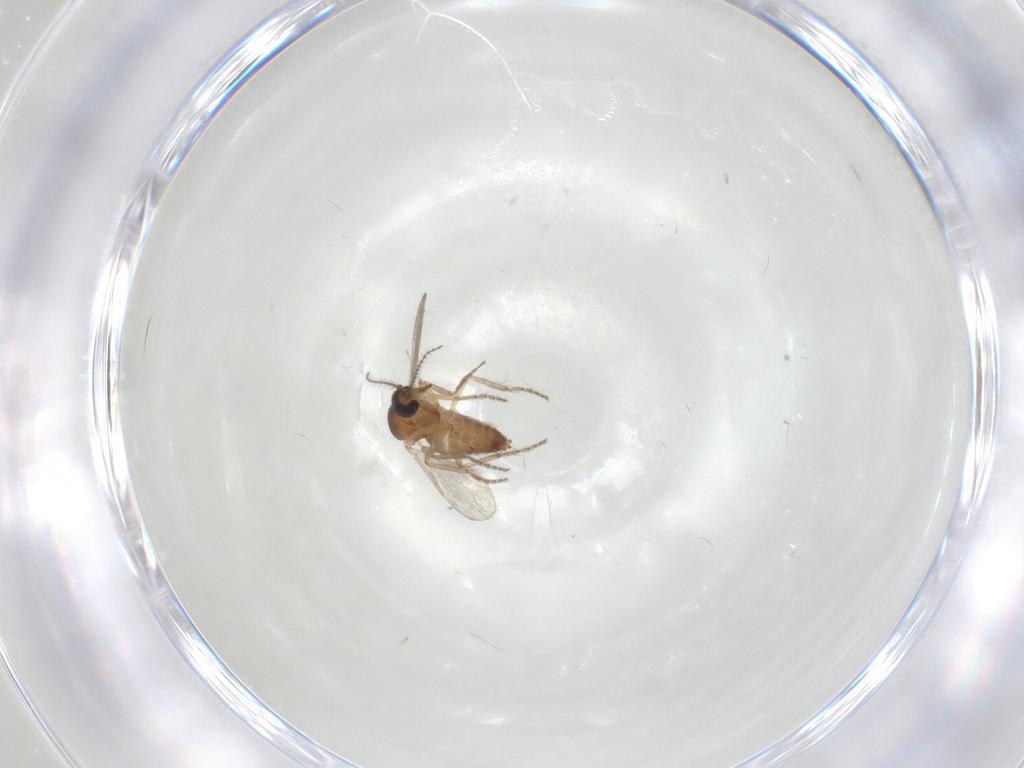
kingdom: Animalia
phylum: Arthropoda
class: Insecta
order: Diptera
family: Ceratopogonidae
